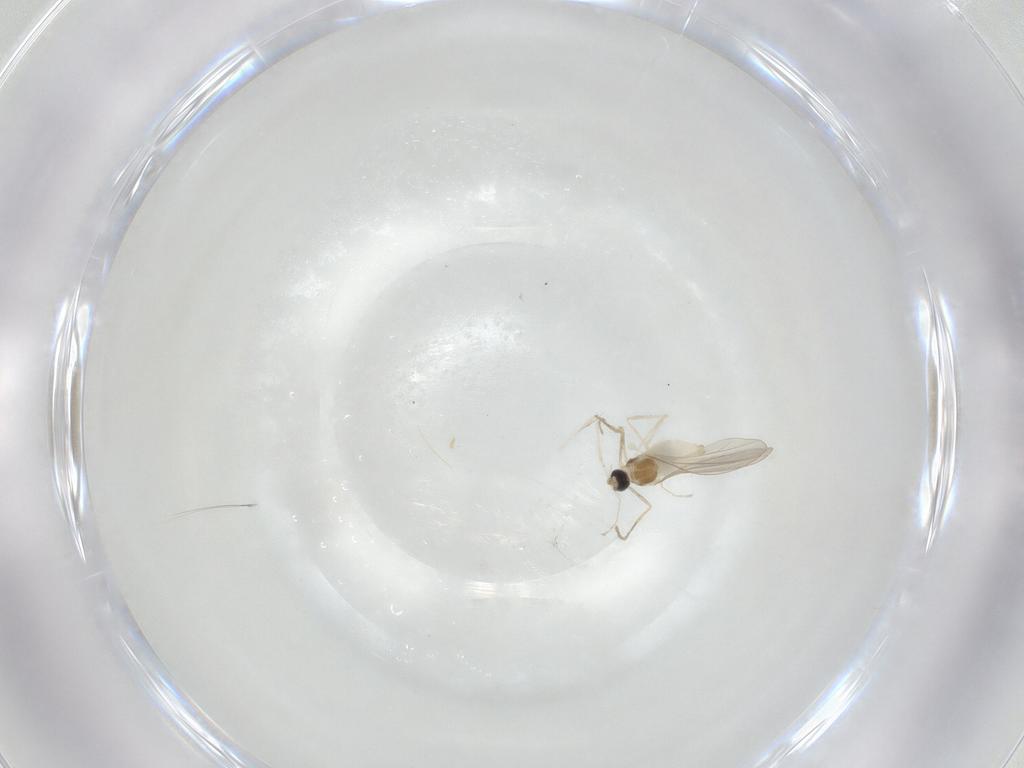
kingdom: Animalia
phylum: Arthropoda
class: Insecta
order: Diptera
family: Cecidomyiidae
